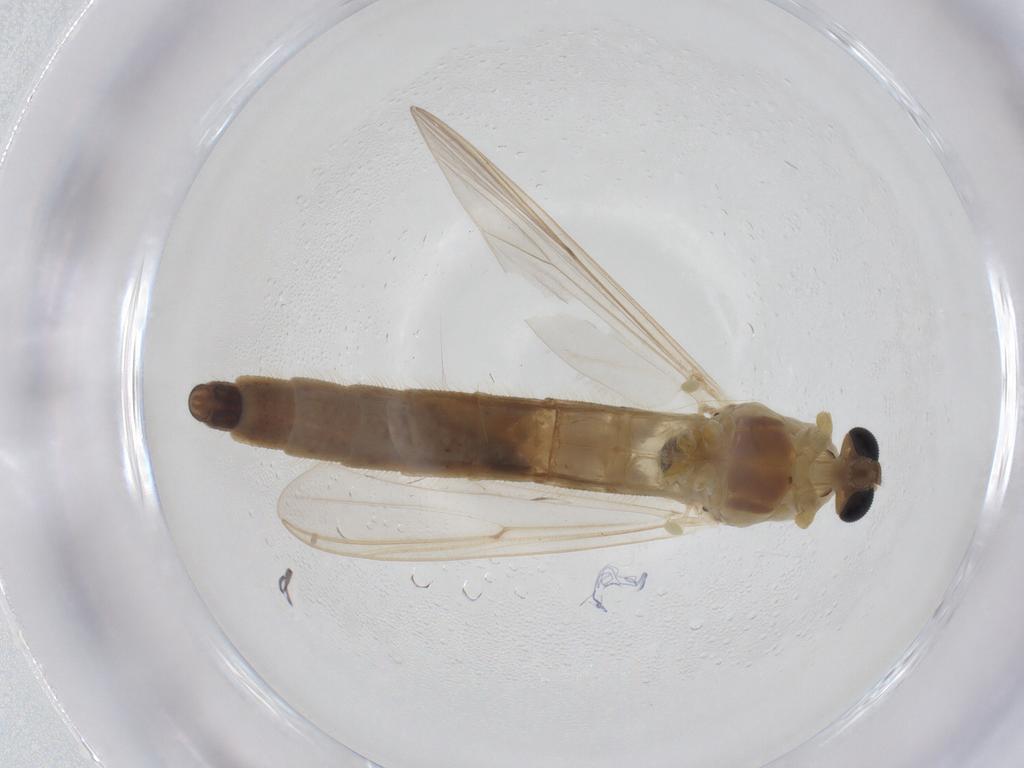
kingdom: Animalia
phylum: Arthropoda
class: Insecta
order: Diptera
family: Chironomidae
